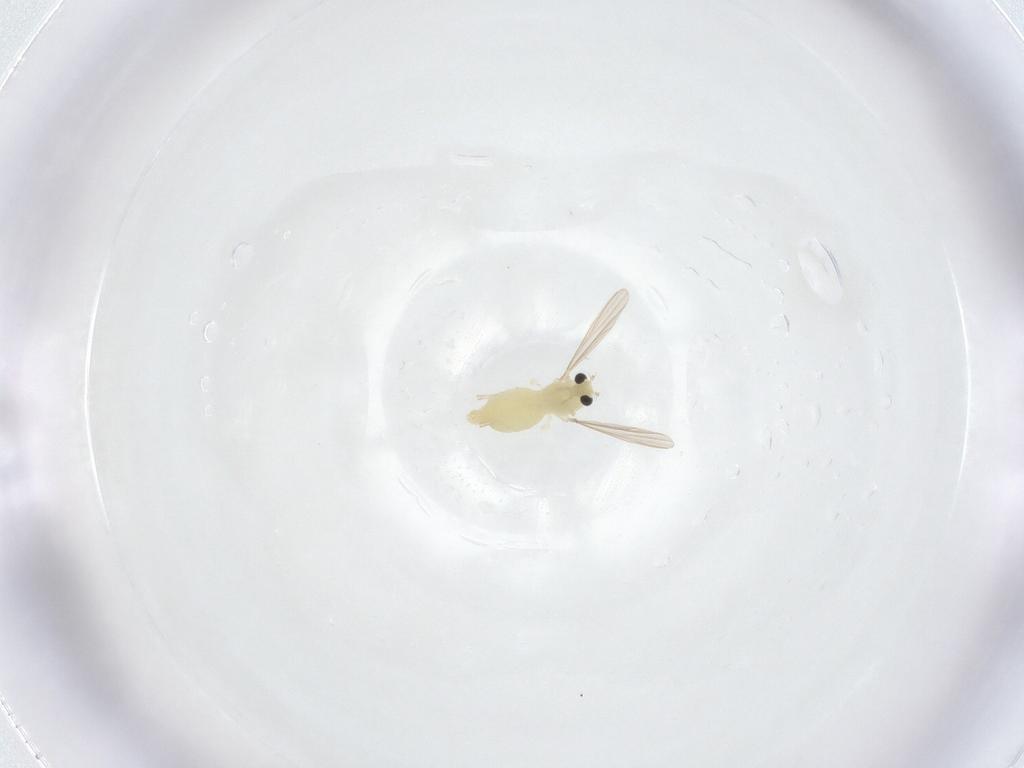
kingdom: Animalia
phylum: Arthropoda
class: Insecta
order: Diptera
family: Chironomidae
